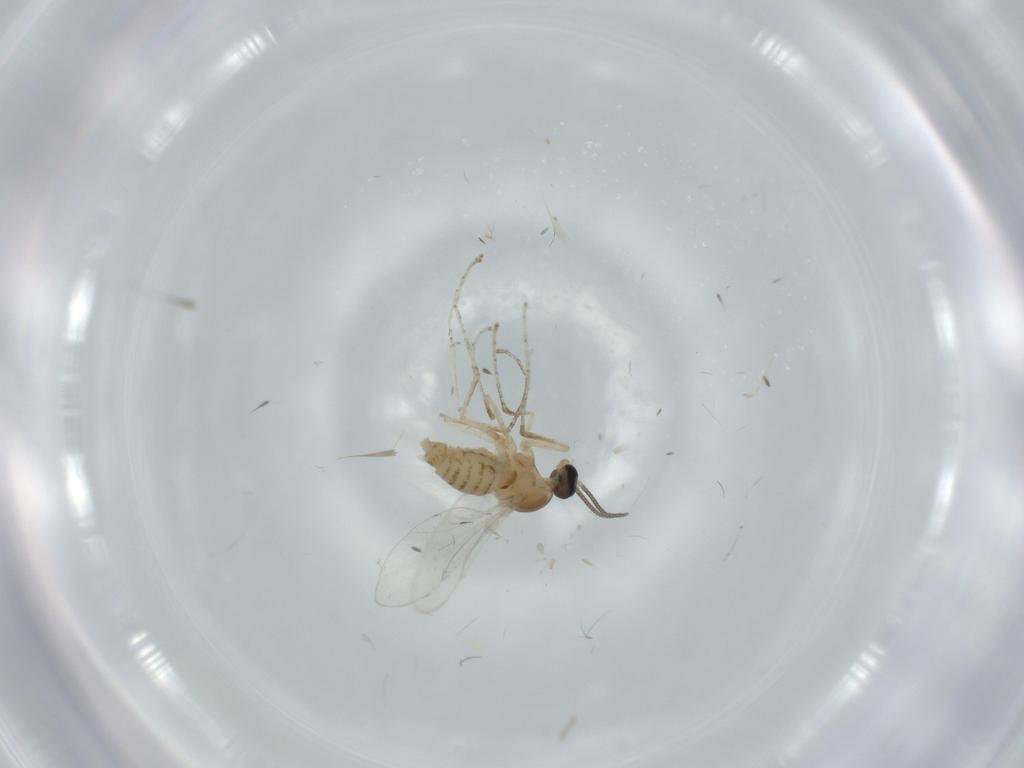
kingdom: Animalia
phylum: Arthropoda
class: Insecta
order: Diptera
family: Cecidomyiidae
